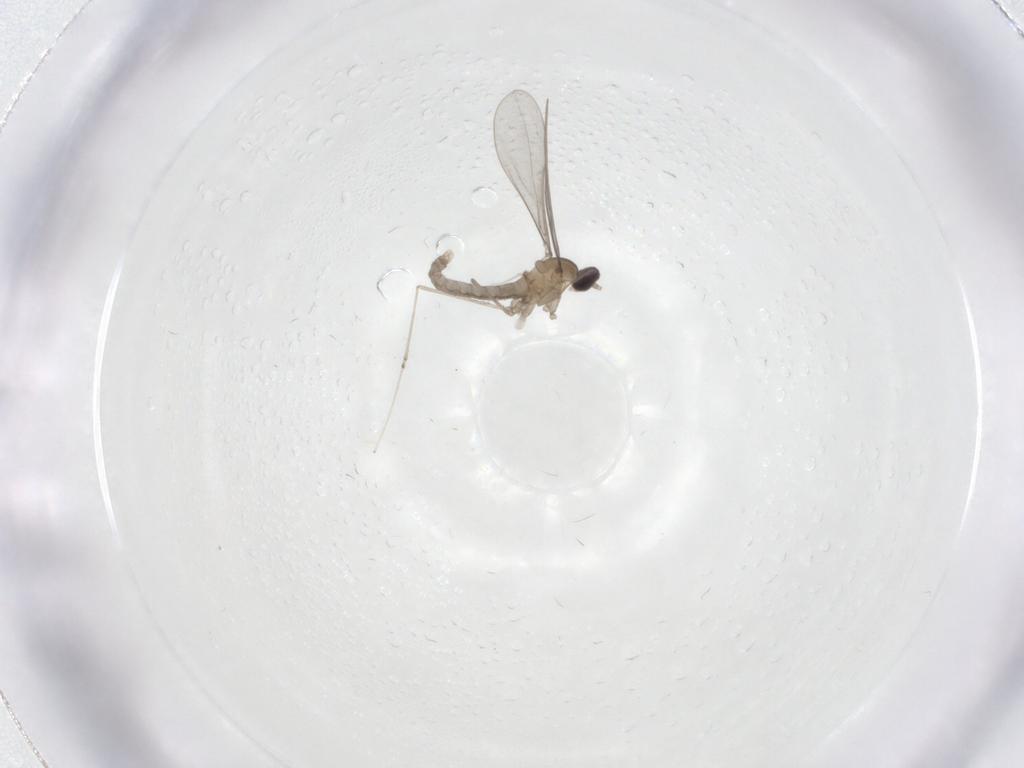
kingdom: Animalia
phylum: Arthropoda
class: Insecta
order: Diptera
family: Cecidomyiidae
